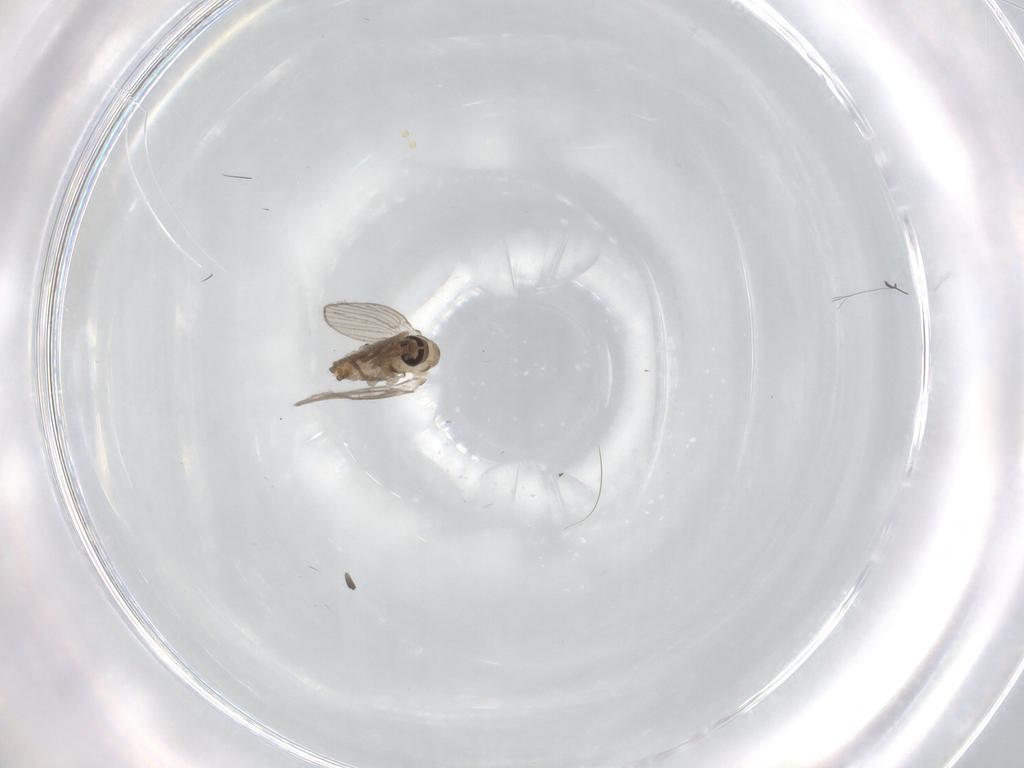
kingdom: Animalia
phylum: Arthropoda
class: Insecta
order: Diptera
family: Psychodidae
